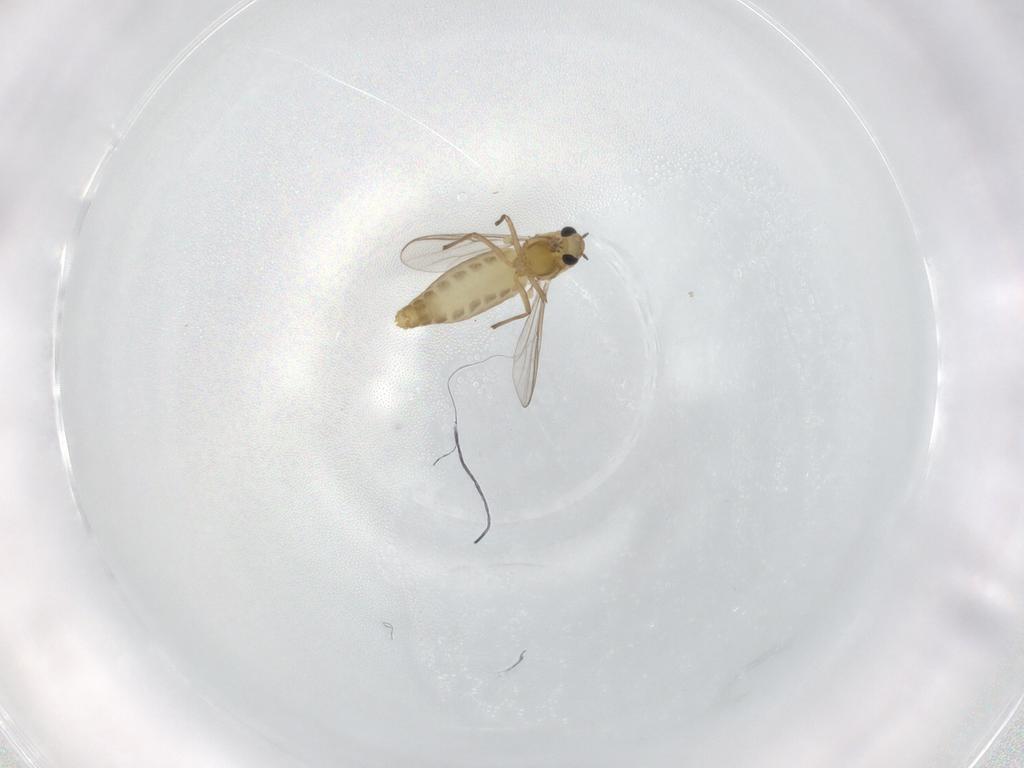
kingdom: Animalia
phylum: Arthropoda
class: Insecta
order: Diptera
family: Chironomidae
